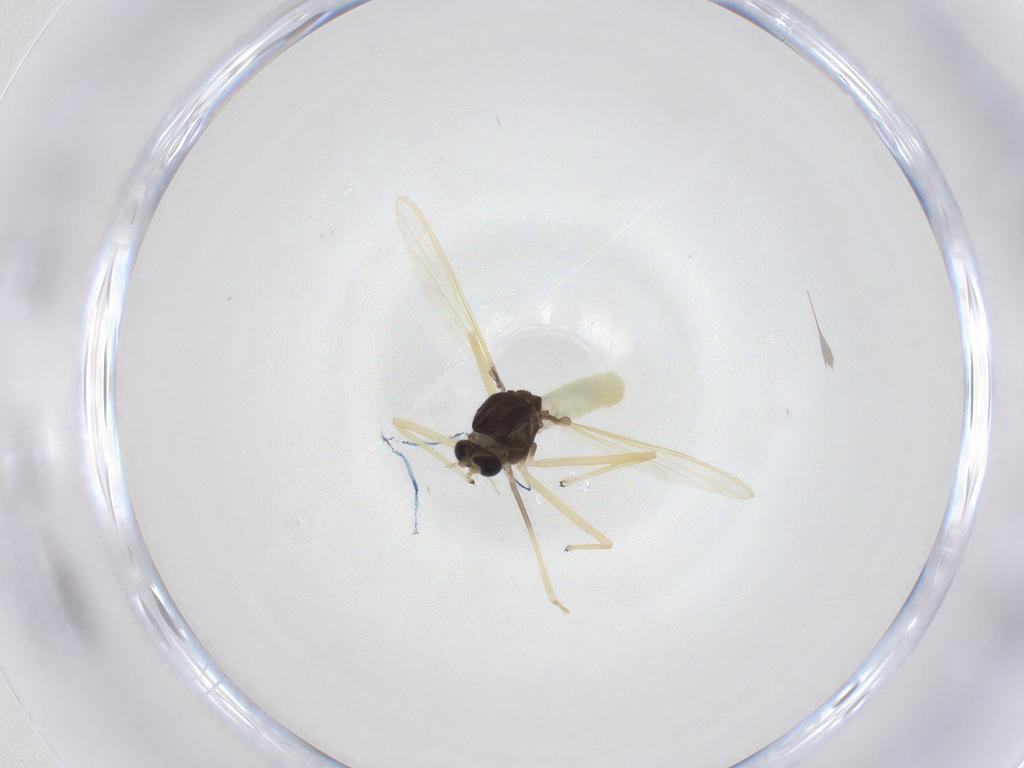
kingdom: Animalia
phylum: Arthropoda
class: Insecta
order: Diptera
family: Chironomidae
